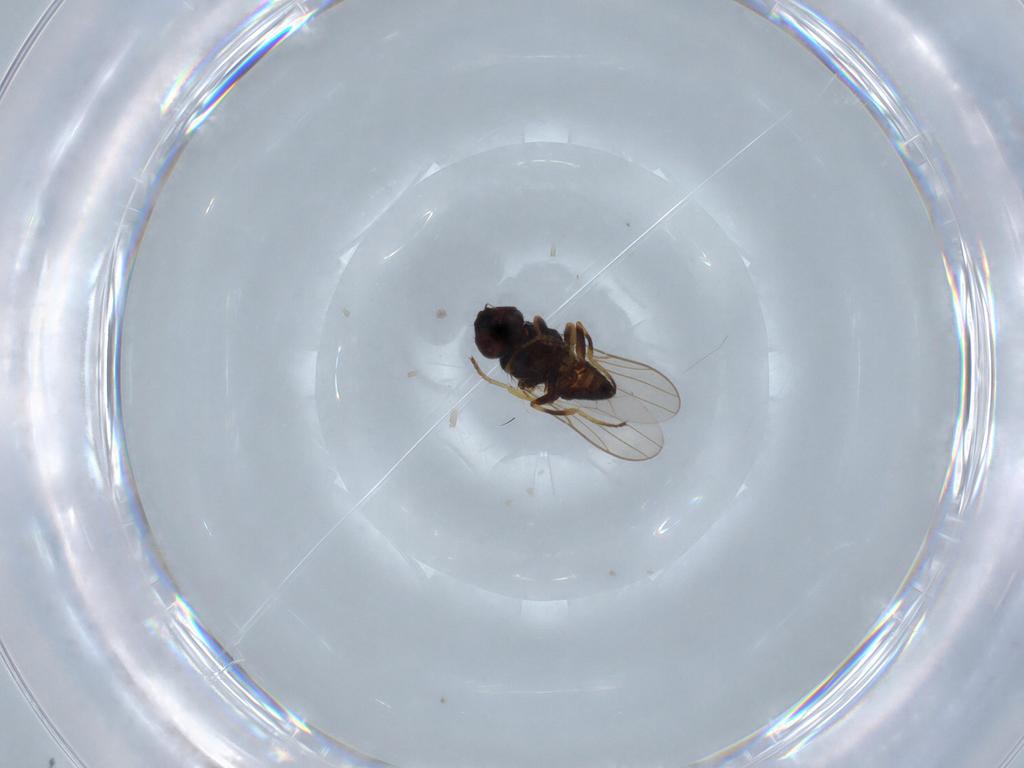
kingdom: Animalia
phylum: Arthropoda
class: Insecta
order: Diptera
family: Chloropidae
